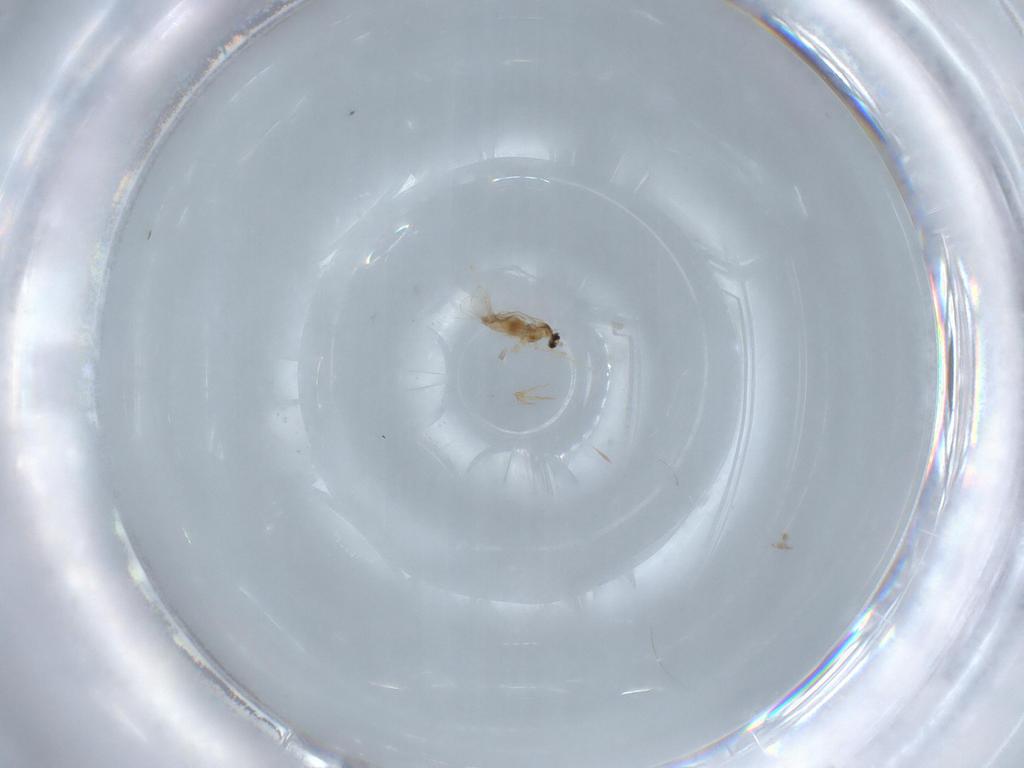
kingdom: Animalia
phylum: Arthropoda
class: Insecta
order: Diptera
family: Cecidomyiidae
